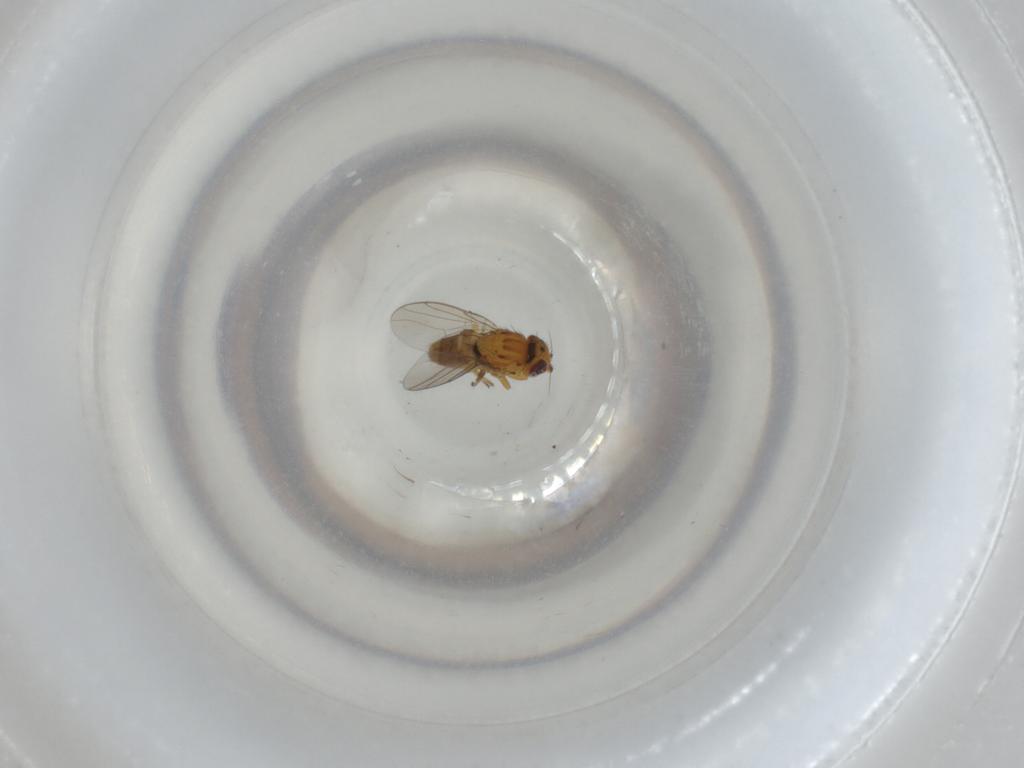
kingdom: Animalia
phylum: Arthropoda
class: Insecta
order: Diptera
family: Chloropidae
